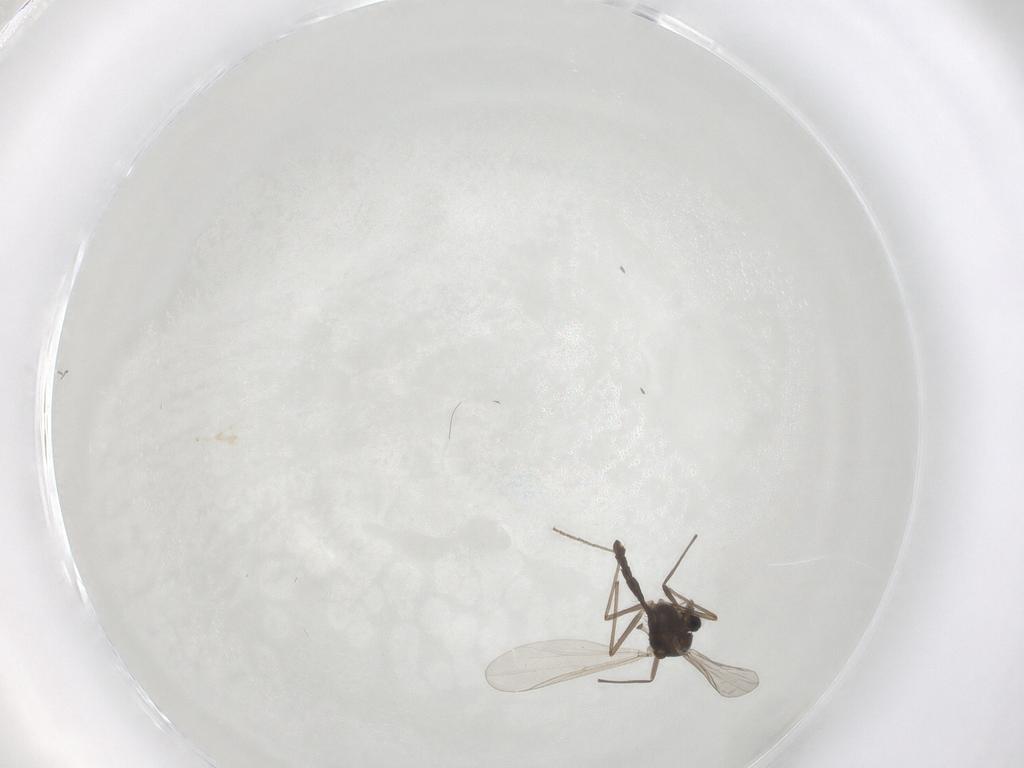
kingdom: Animalia
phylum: Arthropoda
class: Insecta
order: Diptera
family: Chironomidae
